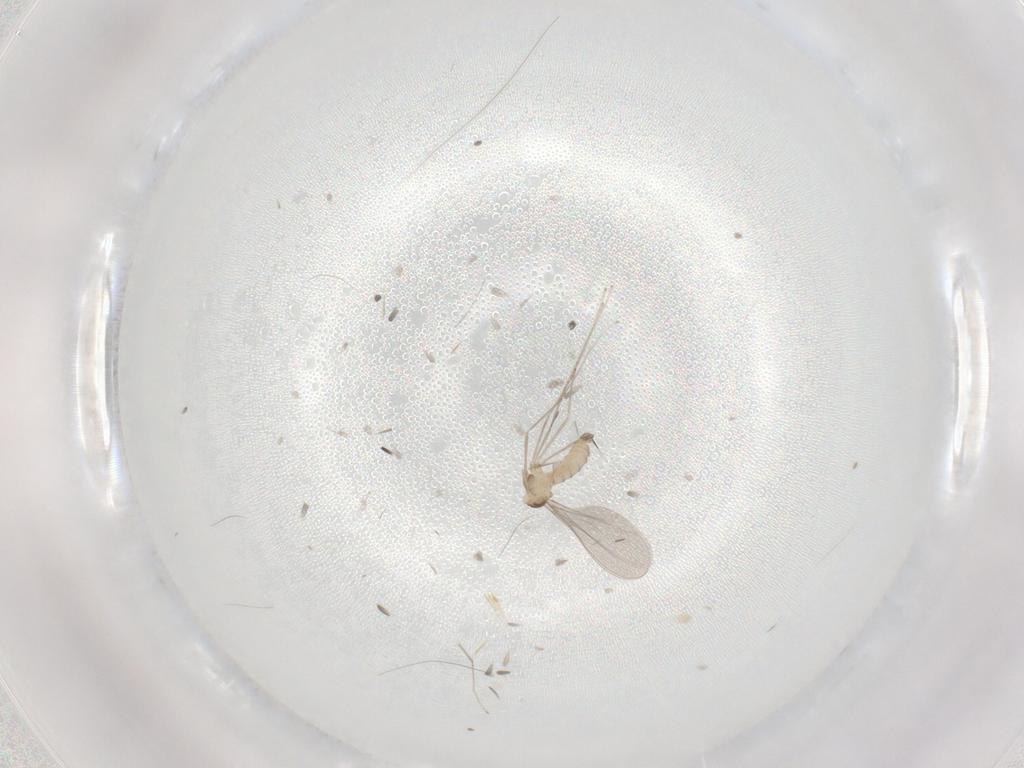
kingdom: Animalia
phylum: Arthropoda
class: Insecta
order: Diptera
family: Cecidomyiidae
